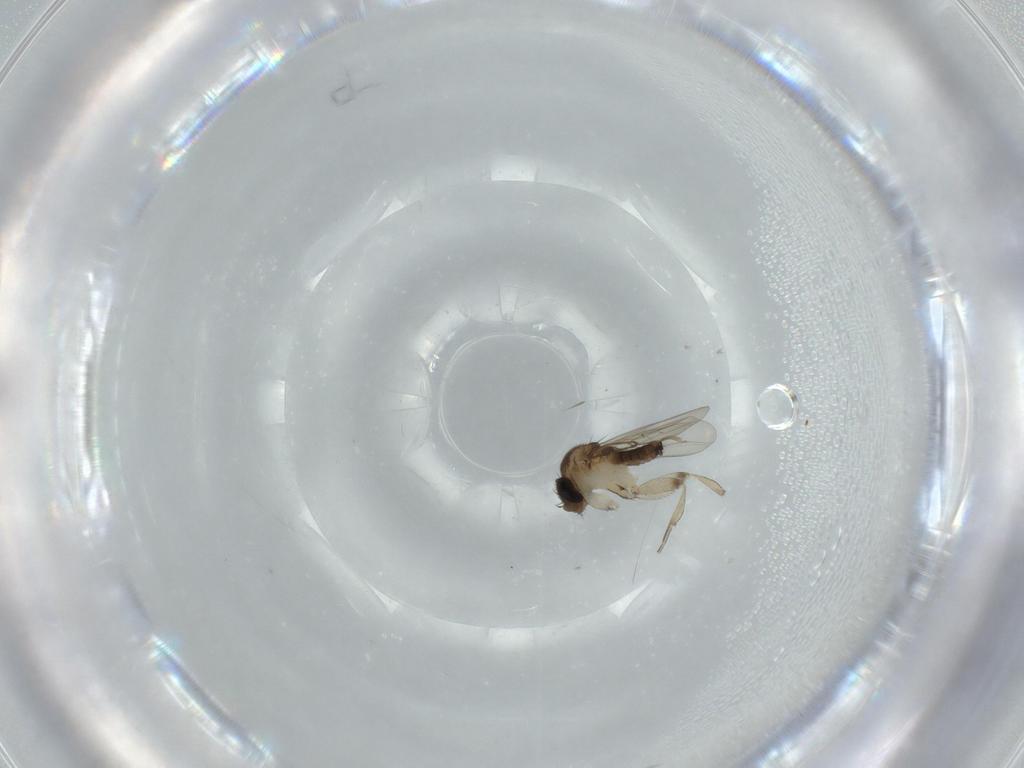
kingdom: Animalia
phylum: Arthropoda
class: Insecta
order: Diptera
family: Phoridae
